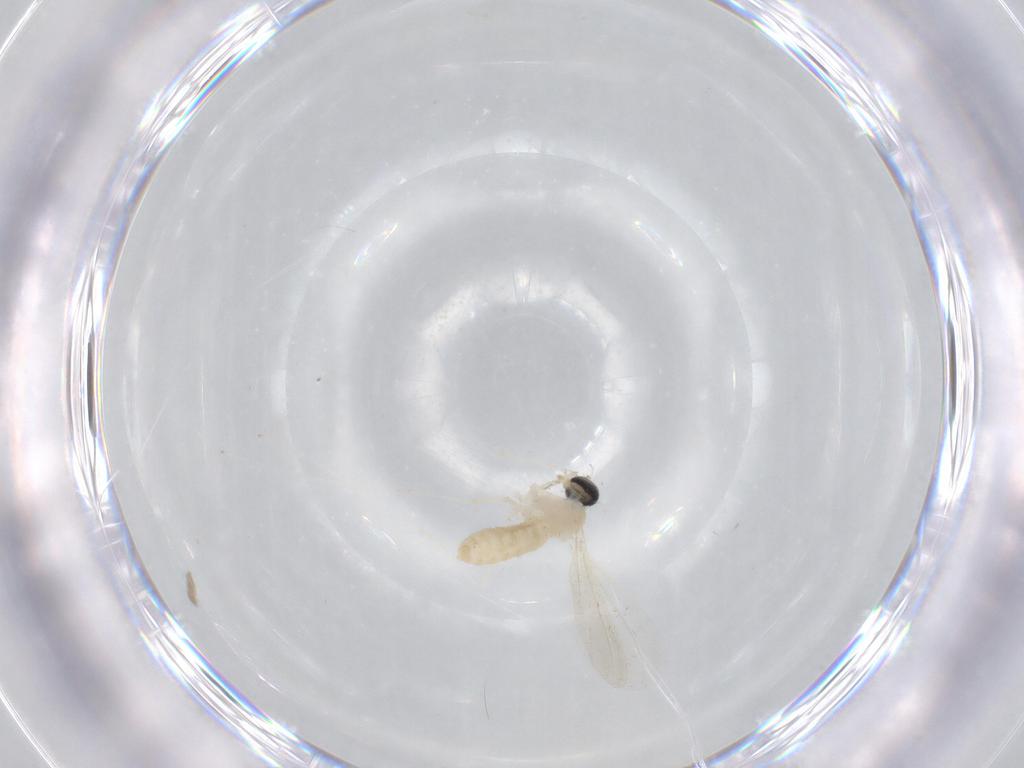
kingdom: Animalia
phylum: Arthropoda
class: Insecta
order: Diptera
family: Cecidomyiidae
